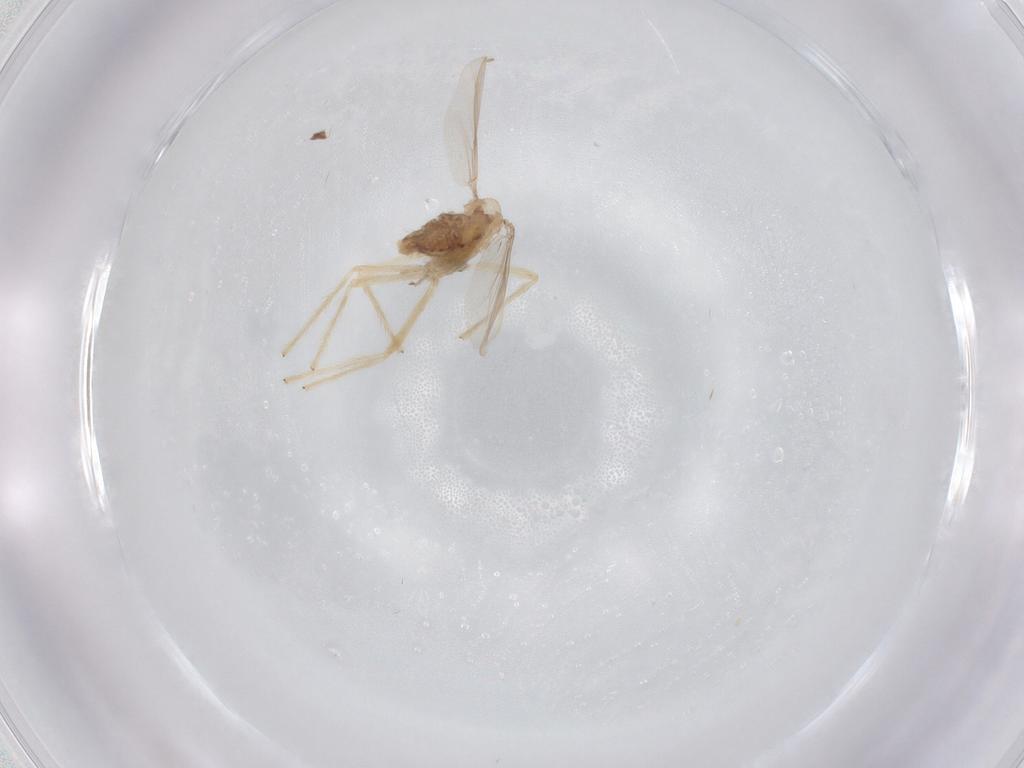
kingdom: Animalia
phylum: Arthropoda
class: Insecta
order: Diptera
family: Chironomidae
